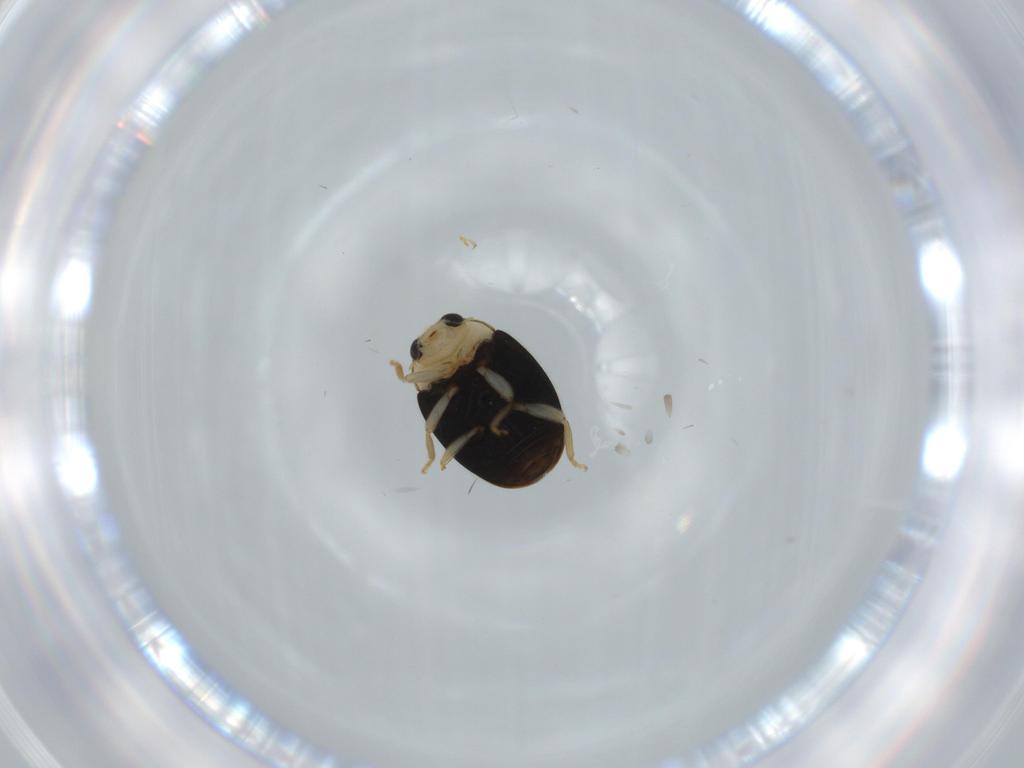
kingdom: Animalia
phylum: Arthropoda
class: Insecta
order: Coleoptera
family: Coccinellidae
